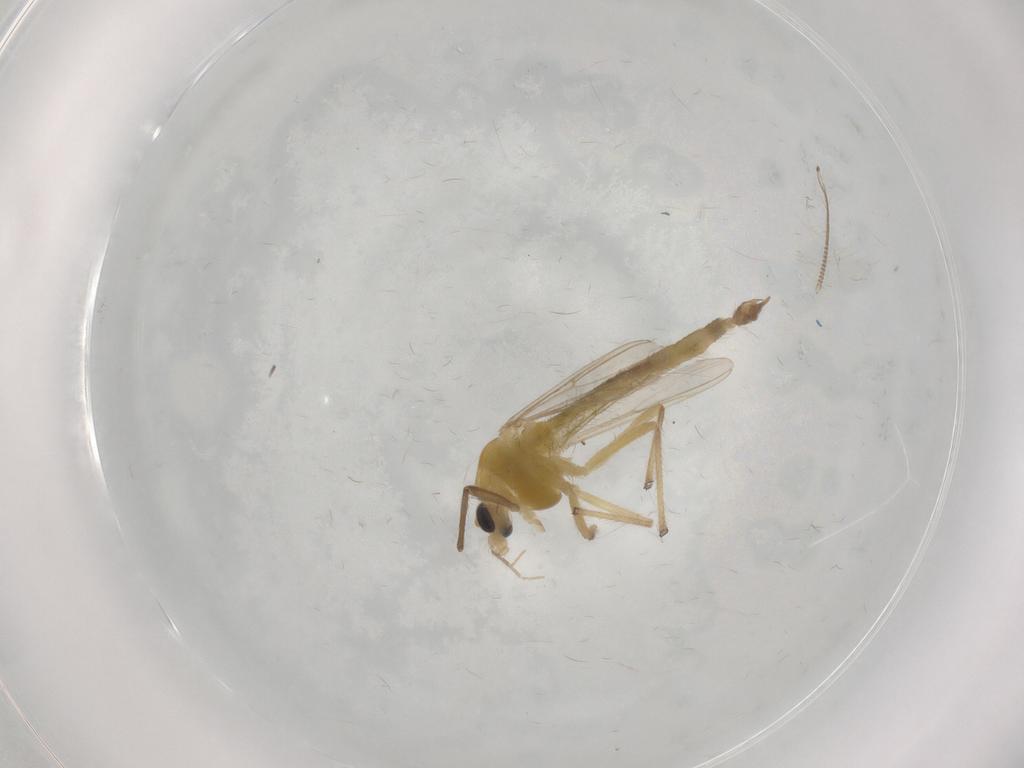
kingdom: Animalia
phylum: Arthropoda
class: Insecta
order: Diptera
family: Chironomidae
